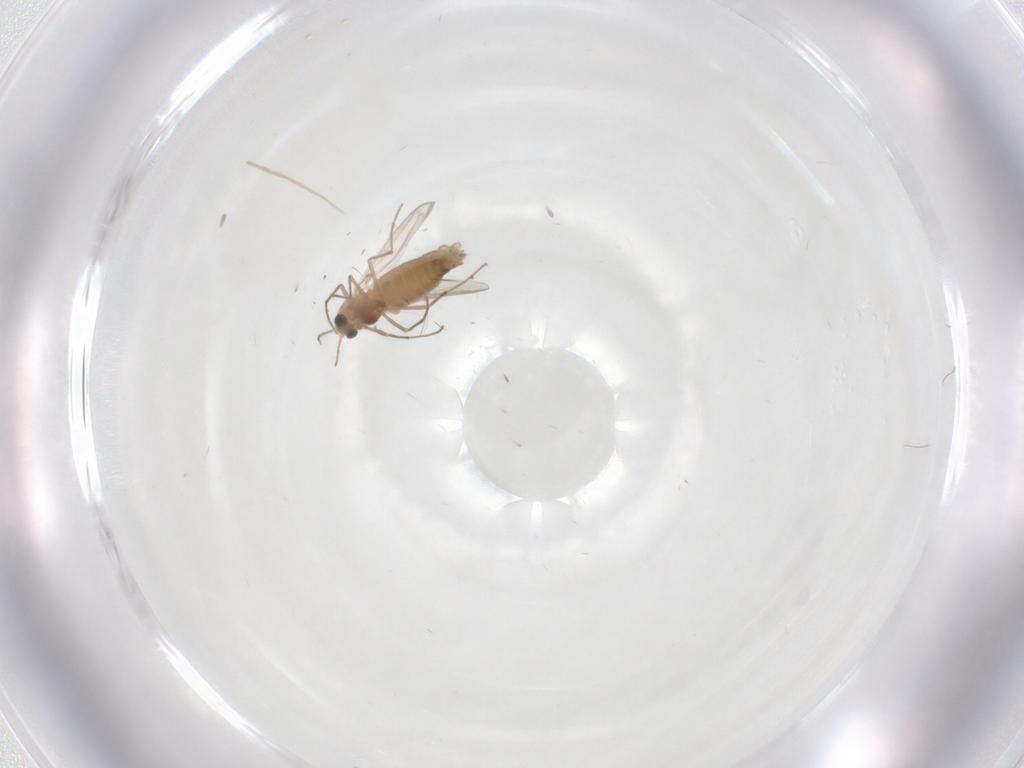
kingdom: Animalia
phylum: Arthropoda
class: Insecta
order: Diptera
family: Chironomidae
